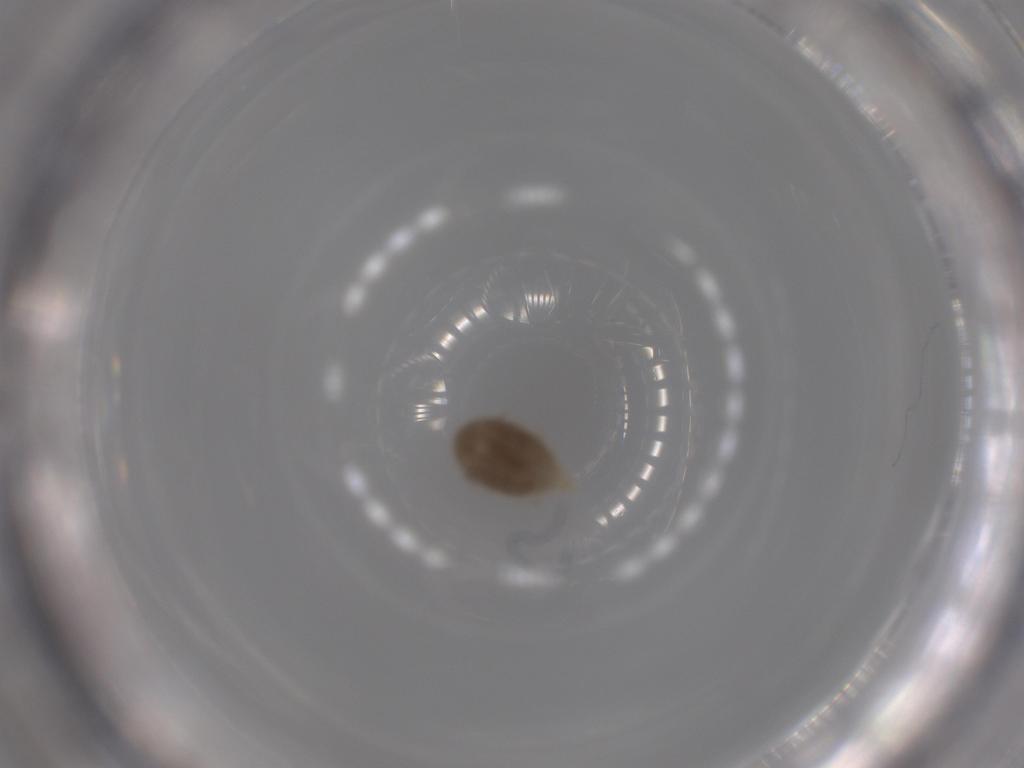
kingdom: Animalia
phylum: Arthropoda
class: Arachnida
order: Trombidiformes
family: Erythraeidae
